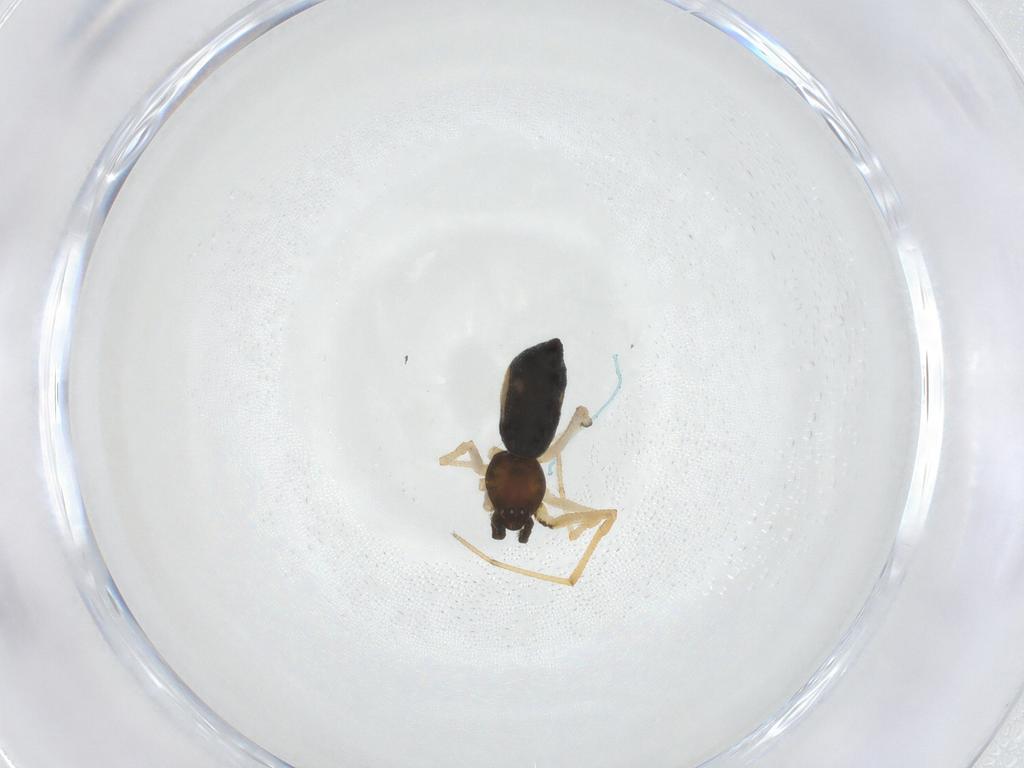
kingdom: Animalia
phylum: Arthropoda
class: Arachnida
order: Araneae
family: Theridiidae
